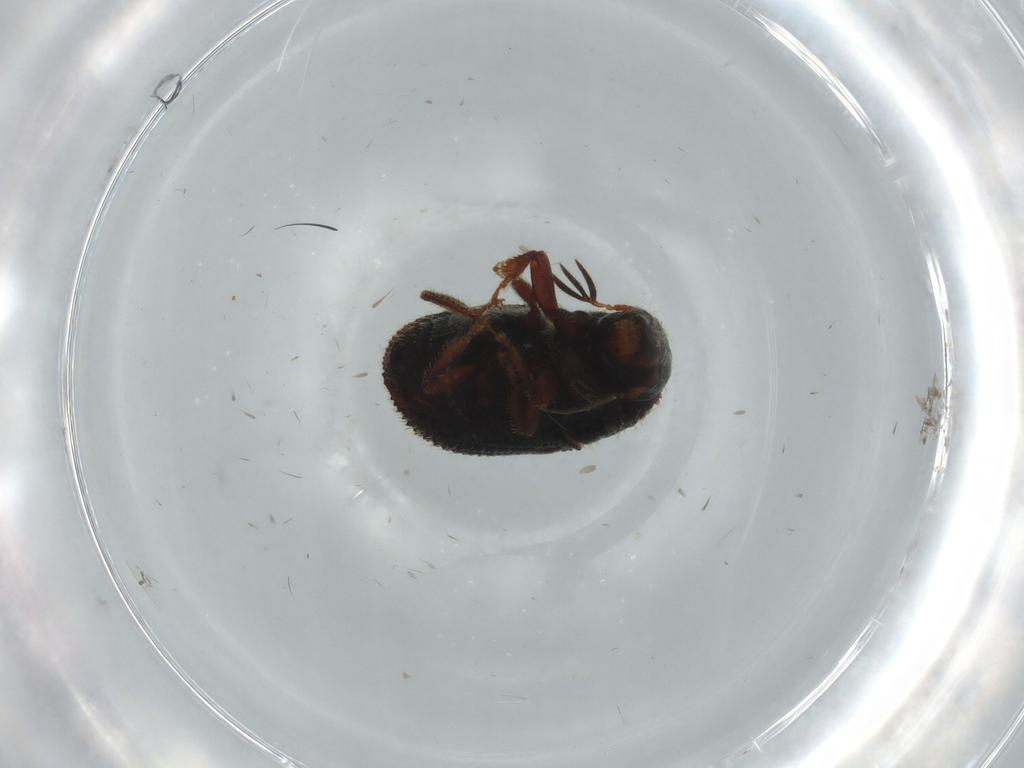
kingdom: Animalia
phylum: Arthropoda
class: Insecta
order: Coleoptera
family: Curculionidae
